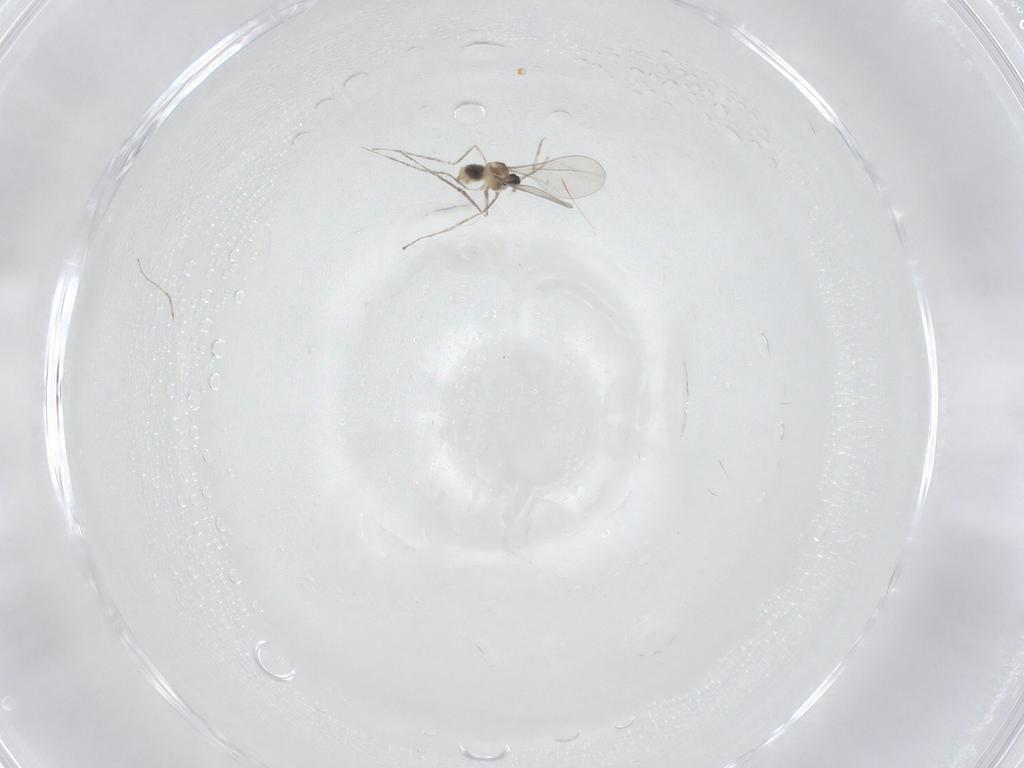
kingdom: Animalia
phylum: Arthropoda
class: Insecta
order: Diptera
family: Cecidomyiidae
